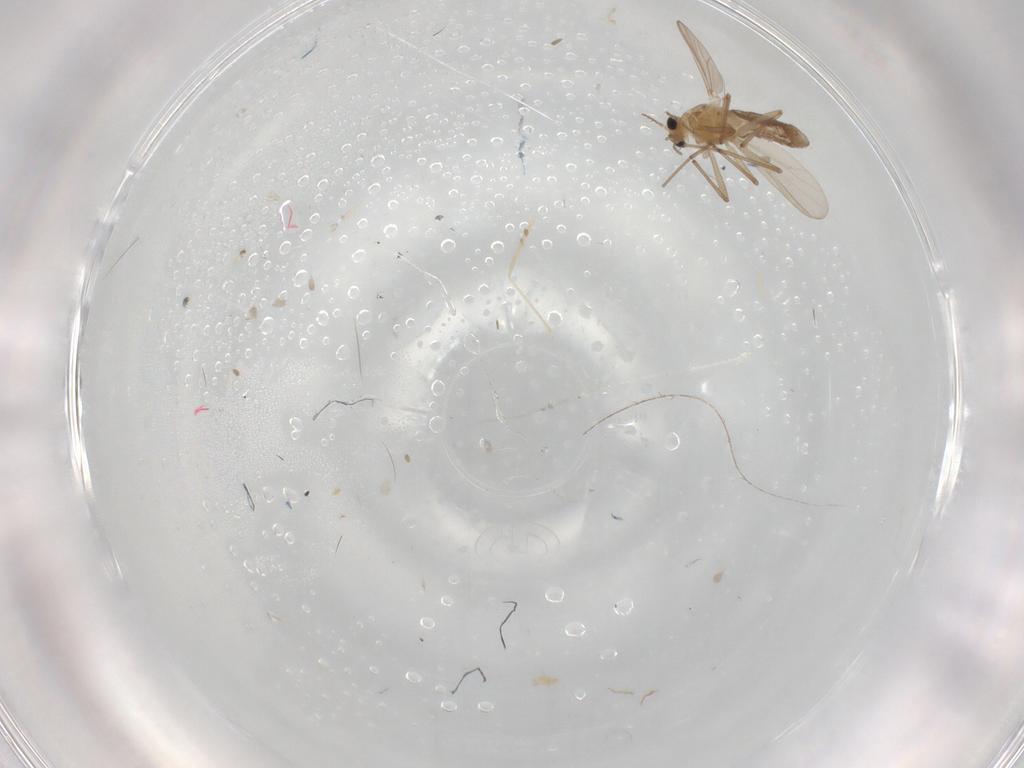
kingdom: Animalia
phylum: Arthropoda
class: Insecta
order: Diptera
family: Chironomidae
